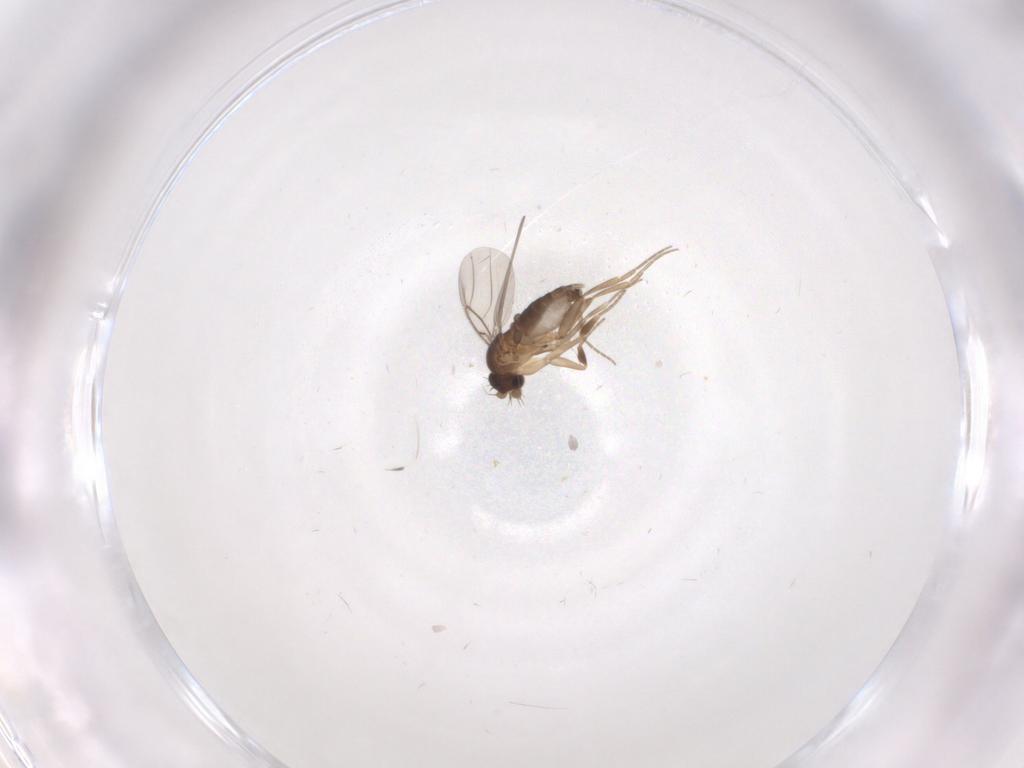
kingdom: Animalia
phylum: Arthropoda
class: Insecta
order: Diptera
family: Phoridae
